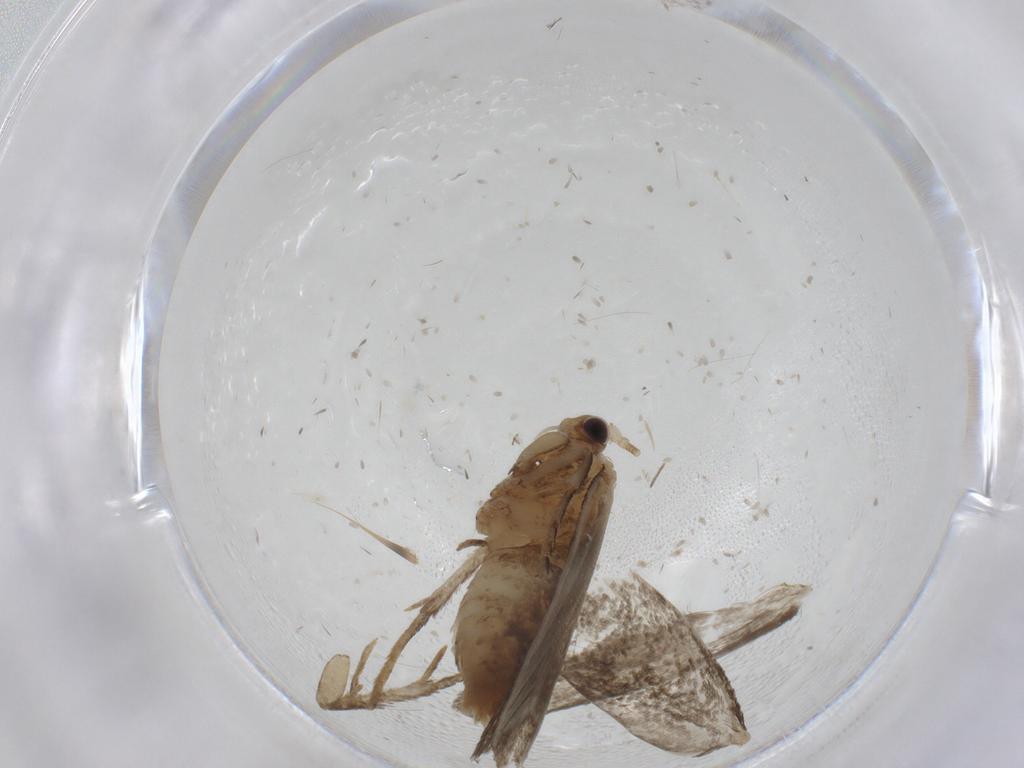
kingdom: Animalia
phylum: Arthropoda
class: Insecta
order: Lepidoptera
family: Tineidae
